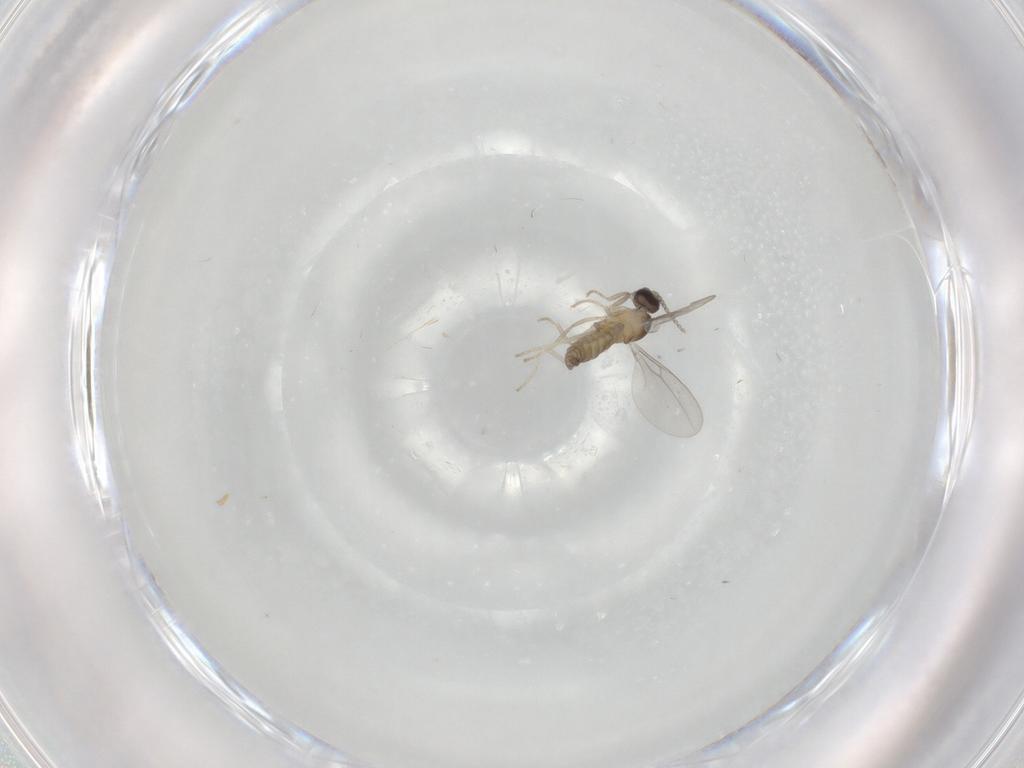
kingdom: Animalia
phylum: Arthropoda
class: Insecta
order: Diptera
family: Cecidomyiidae
